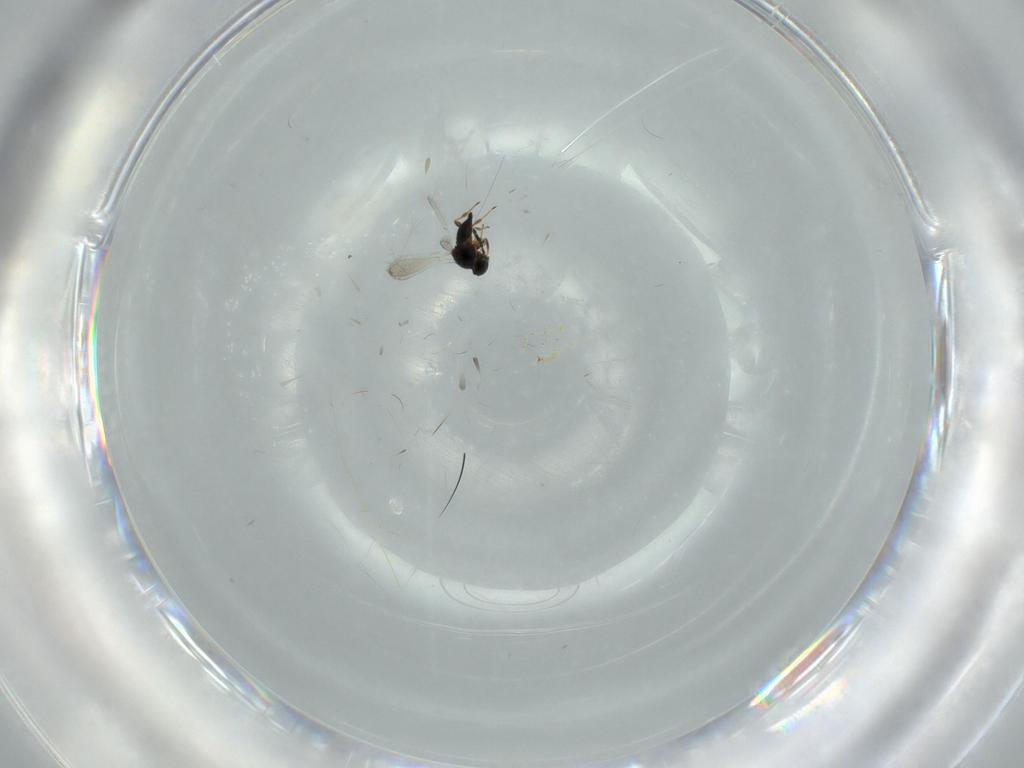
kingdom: Animalia
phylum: Arthropoda
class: Insecta
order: Hymenoptera
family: Platygastridae
